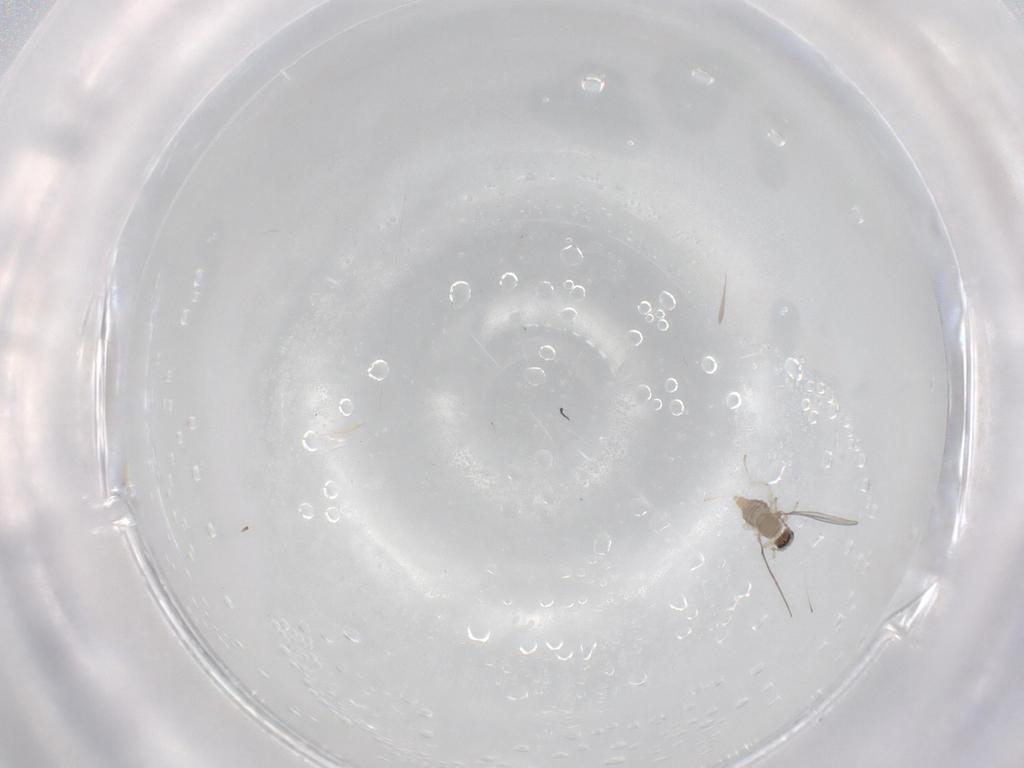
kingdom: Animalia
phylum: Arthropoda
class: Insecta
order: Diptera
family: Cecidomyiidae
